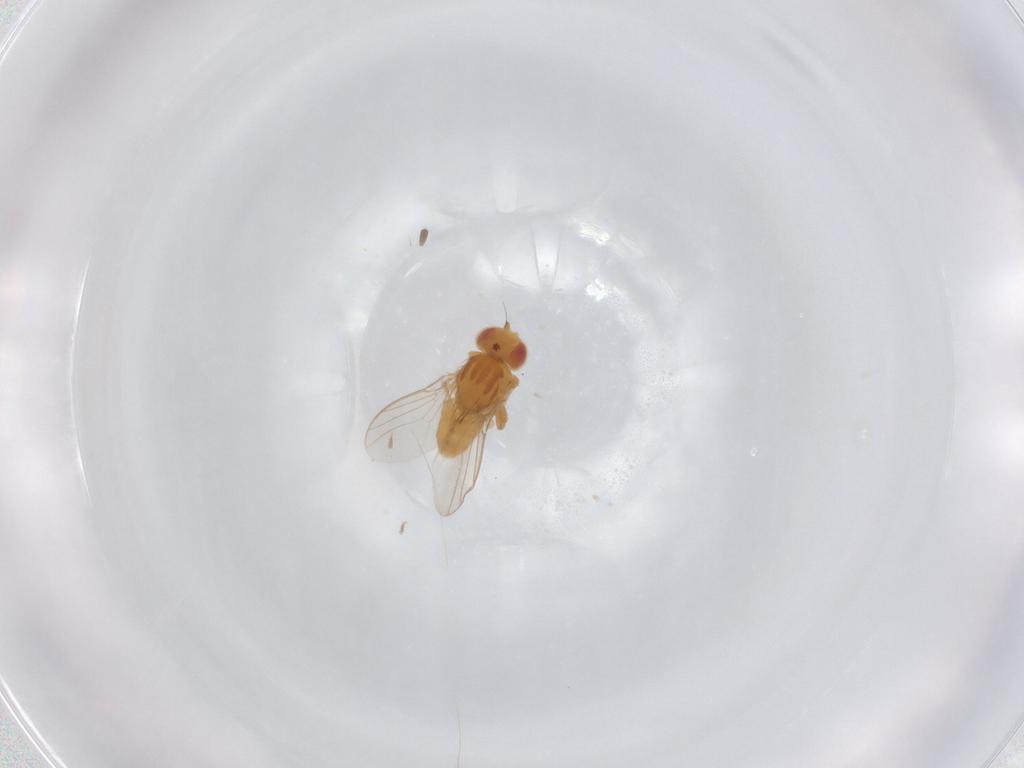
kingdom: Animalia
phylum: Arthropoda
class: Insecta
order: Diptera
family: Ceratopogonidae
